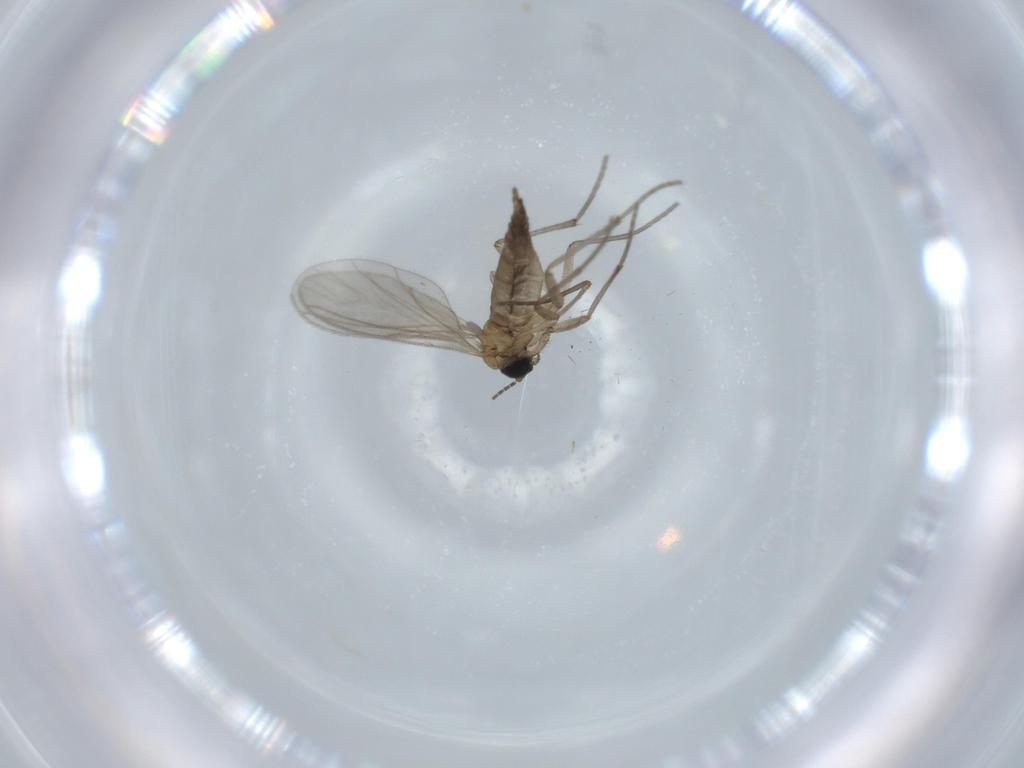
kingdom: Animalia
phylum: Arthropoda
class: Insecta
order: Diptera
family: Sciaridae
